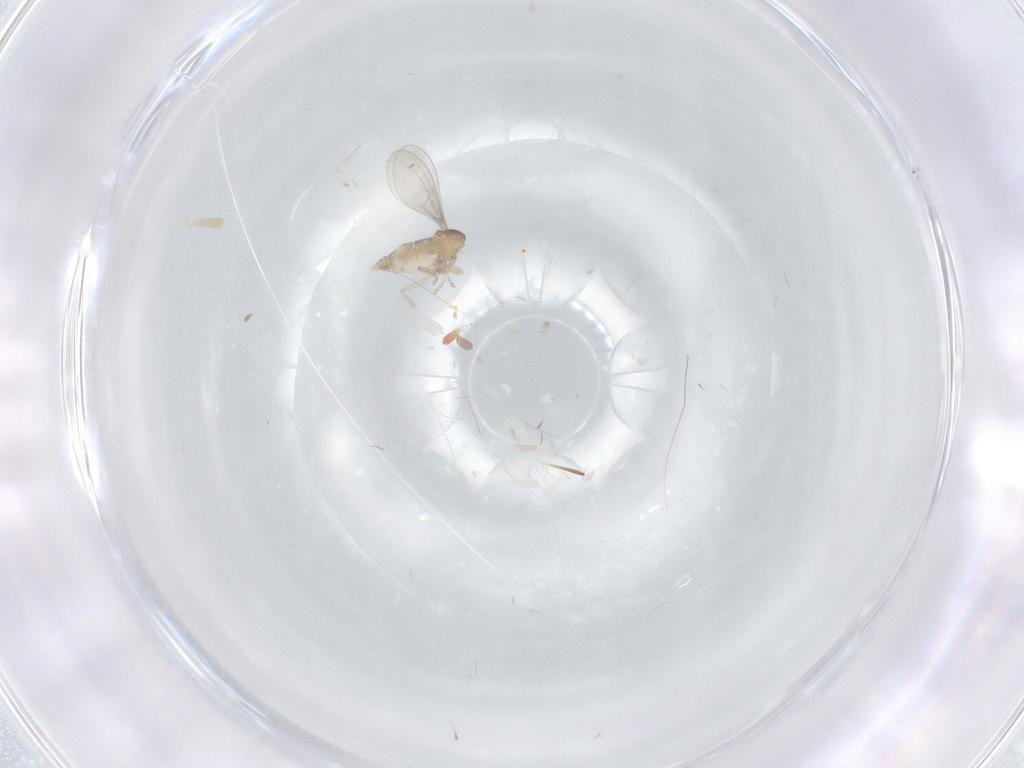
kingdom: Animalia
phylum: Arthropoda
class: Insecta
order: Diptera
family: Cecidomyiidae
